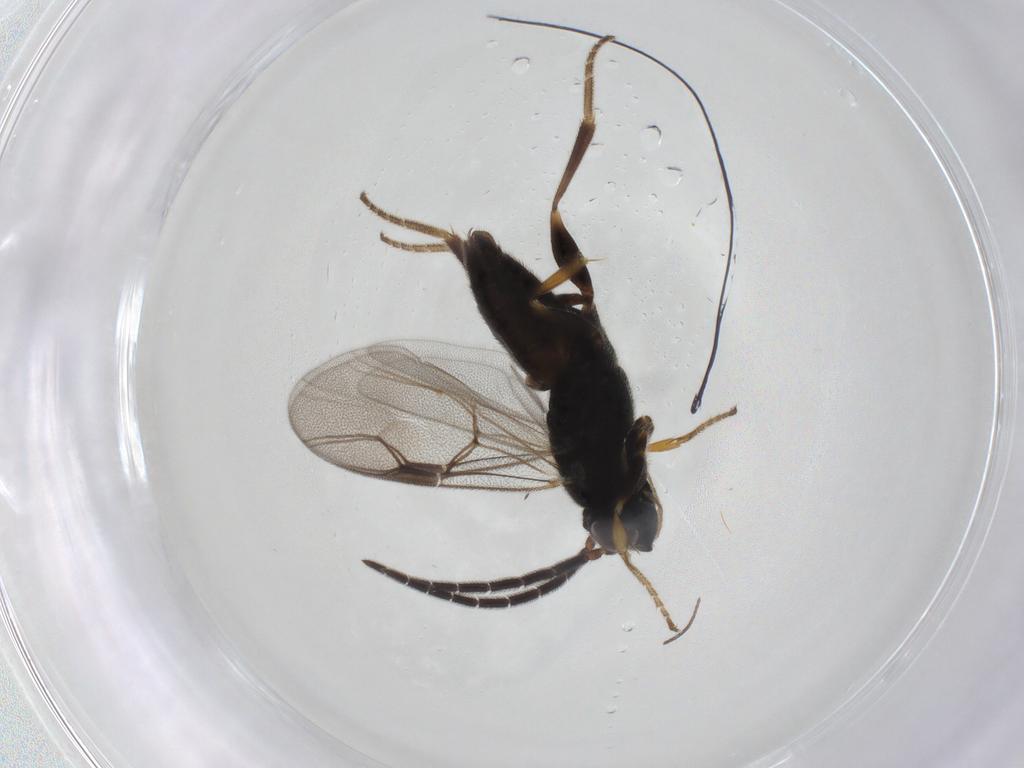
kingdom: Animalia
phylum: Arthropoda
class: Insecta
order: Hymenoptera
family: Dryinidae
